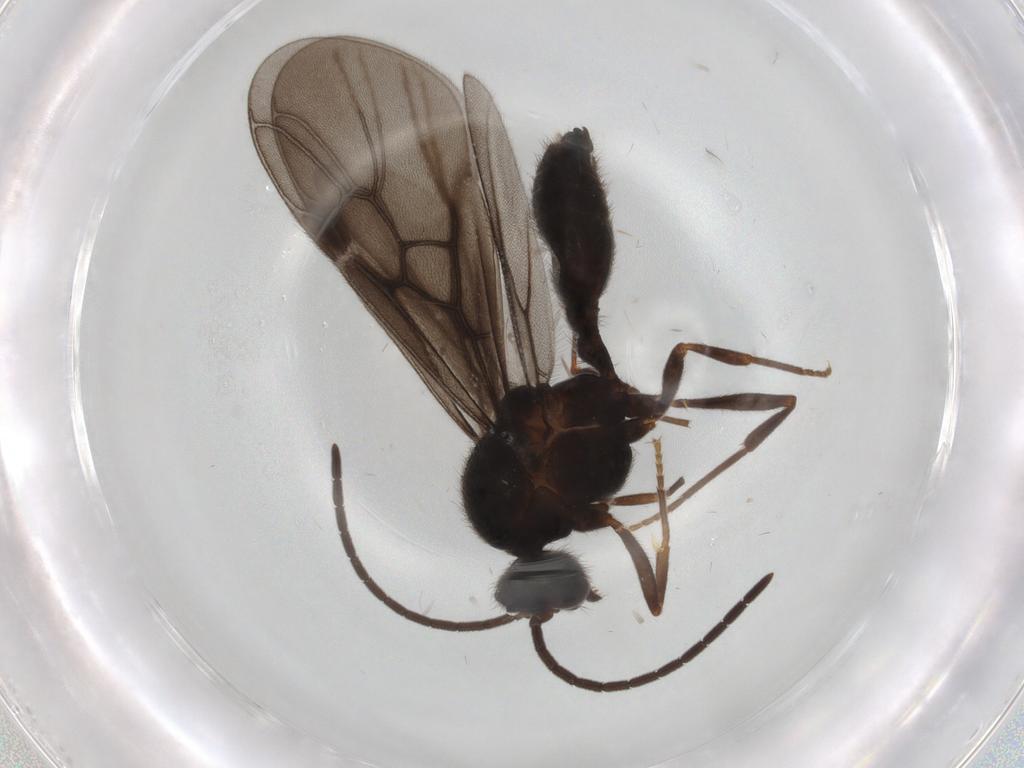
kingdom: Animalia
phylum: Arthropoda
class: Insecta
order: Hymenoptera
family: Formicidae
